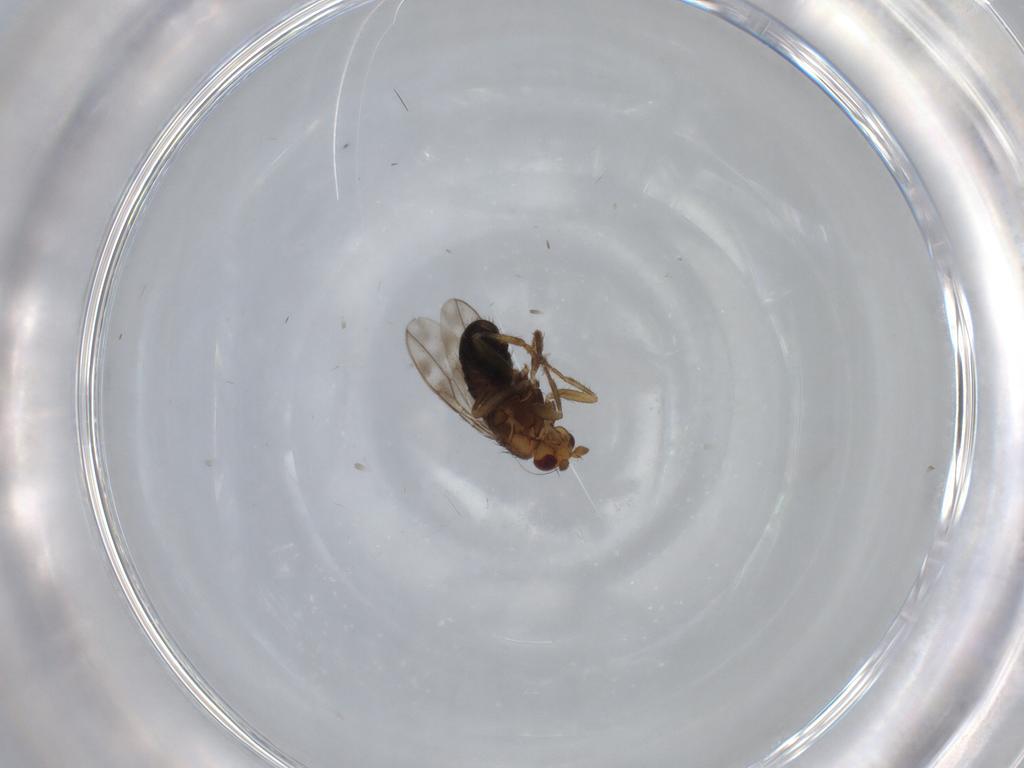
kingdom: Animalia
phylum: Arthropoda
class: Insecta
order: Diptera
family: Sphaeroceridae
